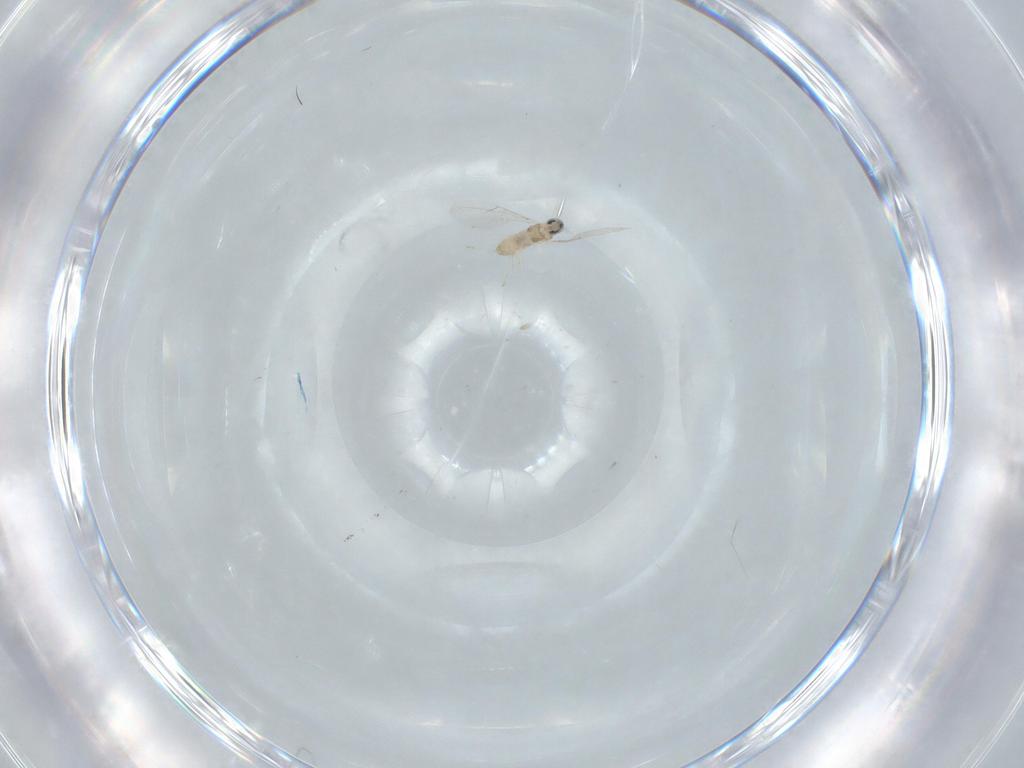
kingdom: Animalia
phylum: Arthropoda
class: Insecta
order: Diptera
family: Cecidomyiidae
